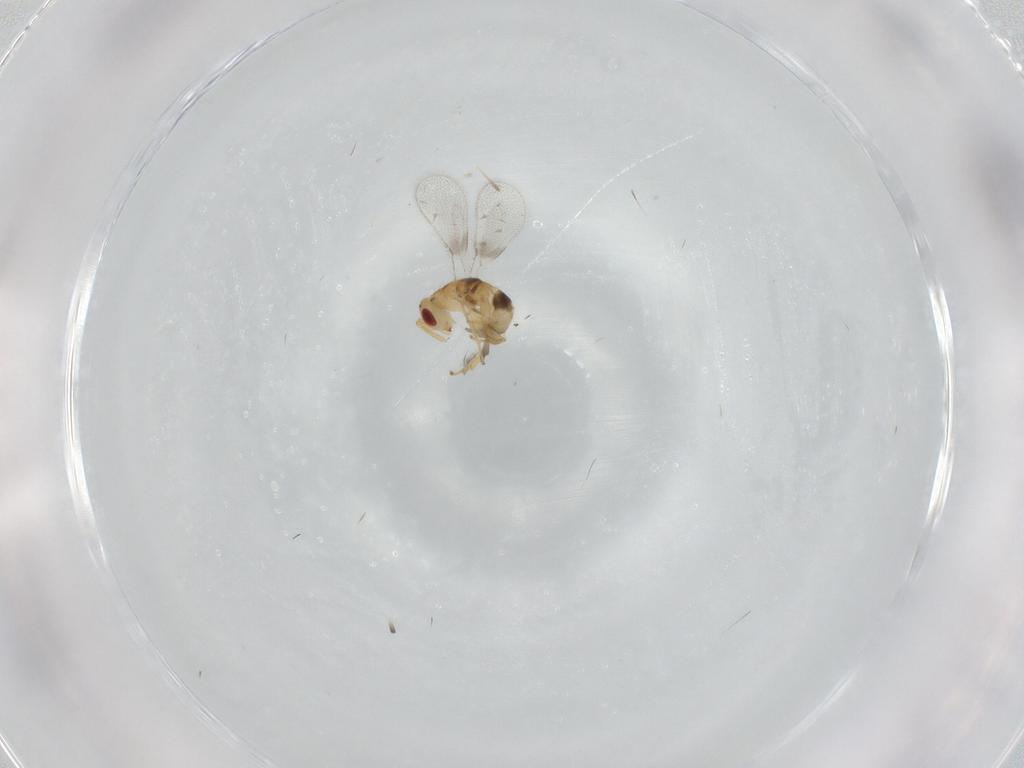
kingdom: Animalia
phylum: Arthropoda
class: Insecta
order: Hymenoptera
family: Torymidae
